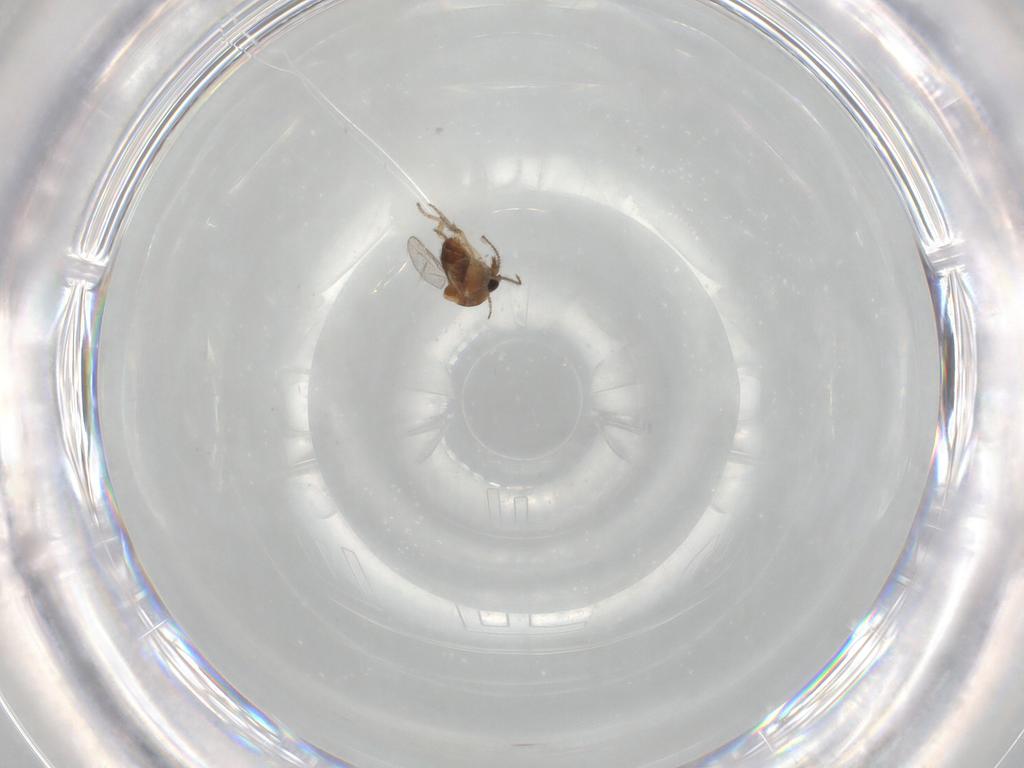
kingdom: Animalia
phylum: Arthropoda
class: Insecta
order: Diptera
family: Ceratopogonidae
